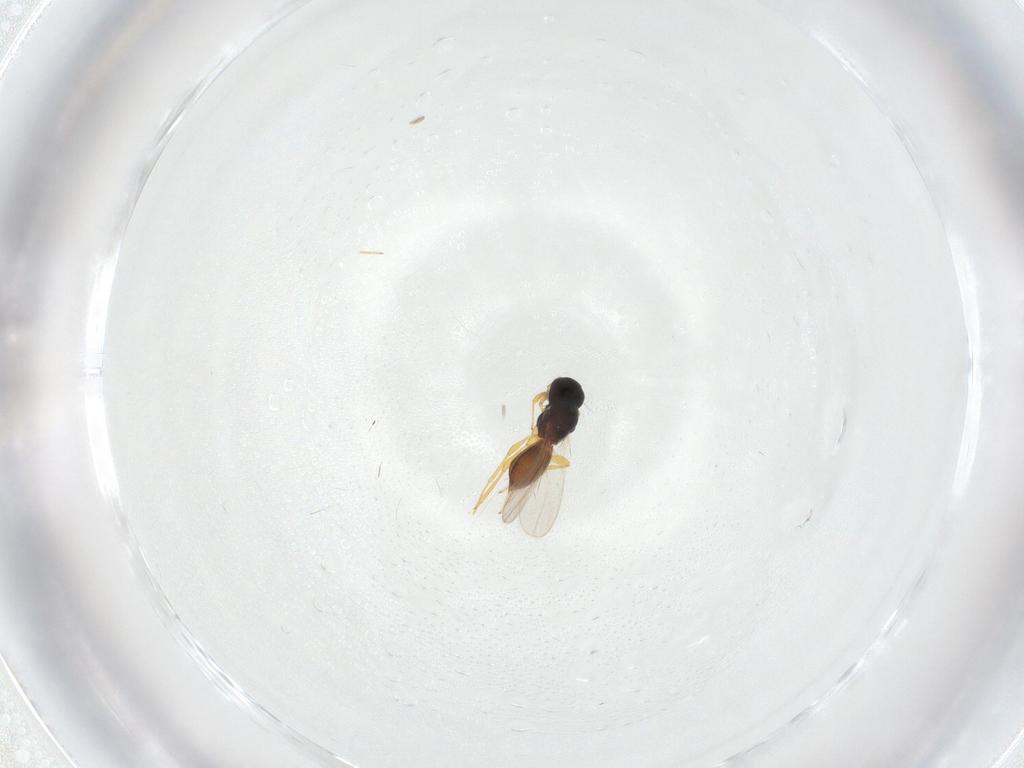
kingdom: Animalia
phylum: Arthropoda
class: Insecta
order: Hymenoptera
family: Platygastridae
